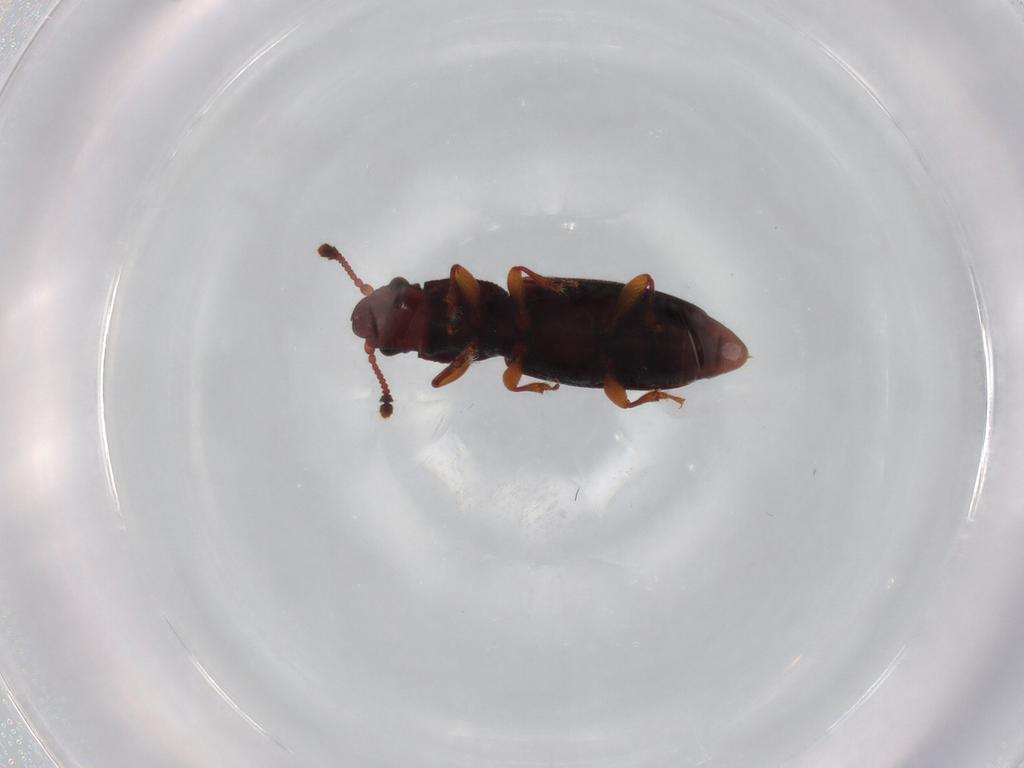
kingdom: Animalia
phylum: Arthropoda
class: Insecta
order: Coleoptera
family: Monotomidae
